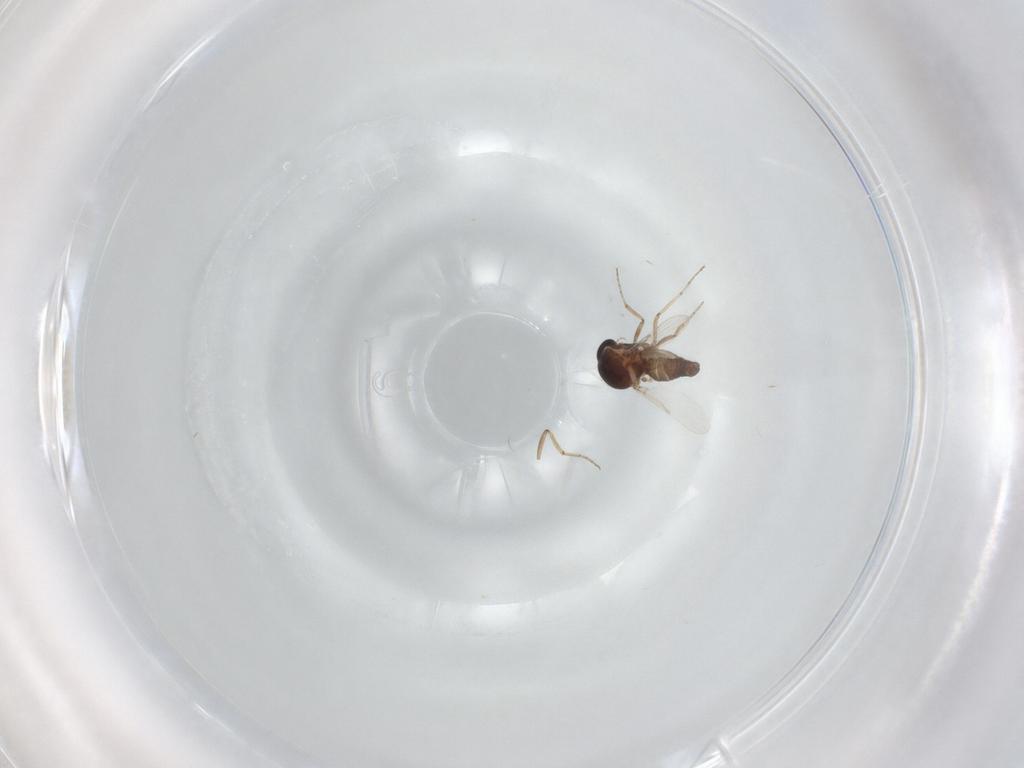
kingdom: Animalia
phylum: Arthropoda
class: Insecta
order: Diptera
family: Ceratopogonidae
